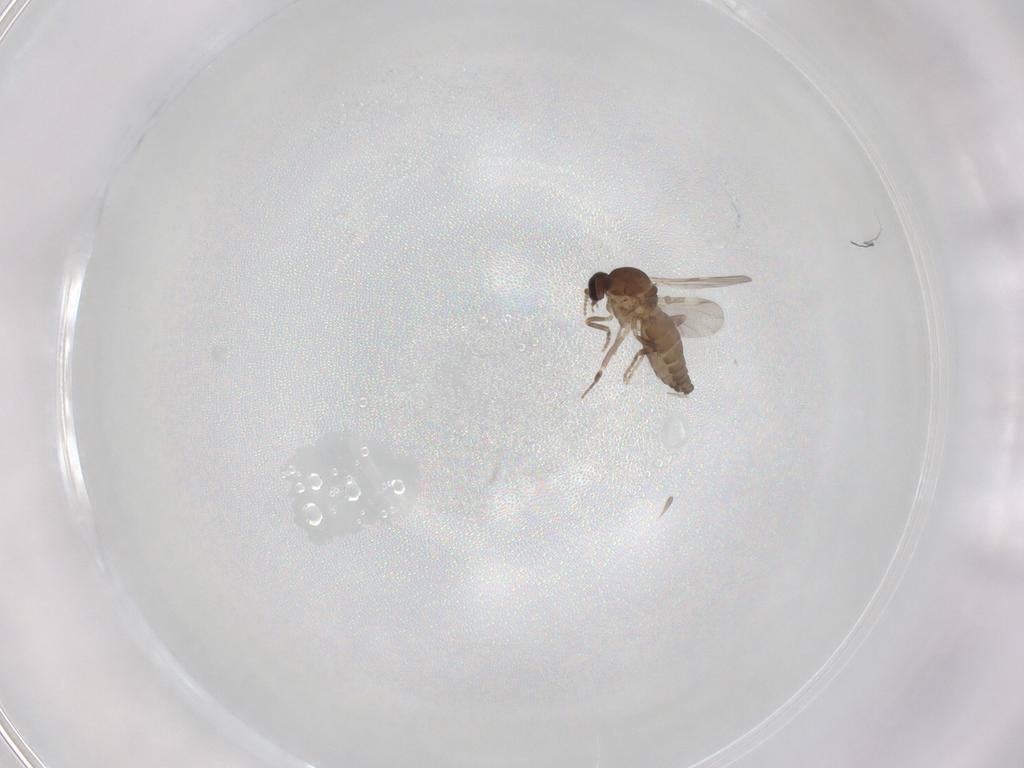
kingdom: Animalia
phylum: Arthropoda
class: Insecta
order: Diptera
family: Ceratopogonidae
